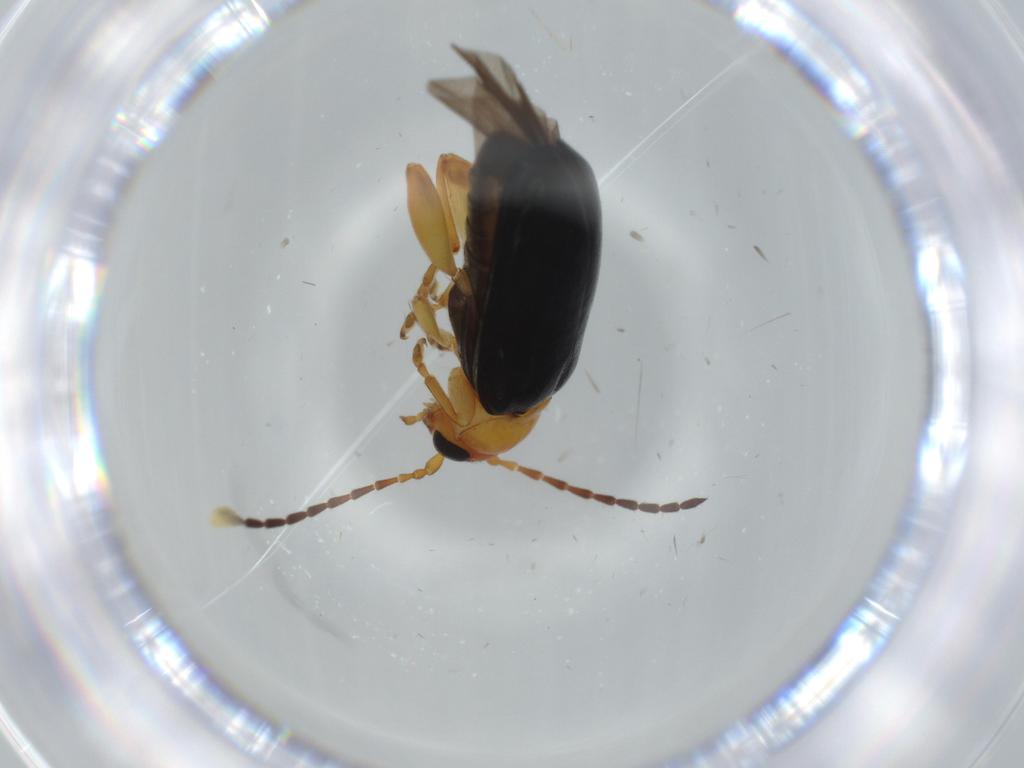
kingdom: Animalia
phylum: Arthropoda
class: Insecta
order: Coleoptera
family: Chrysomelidae
